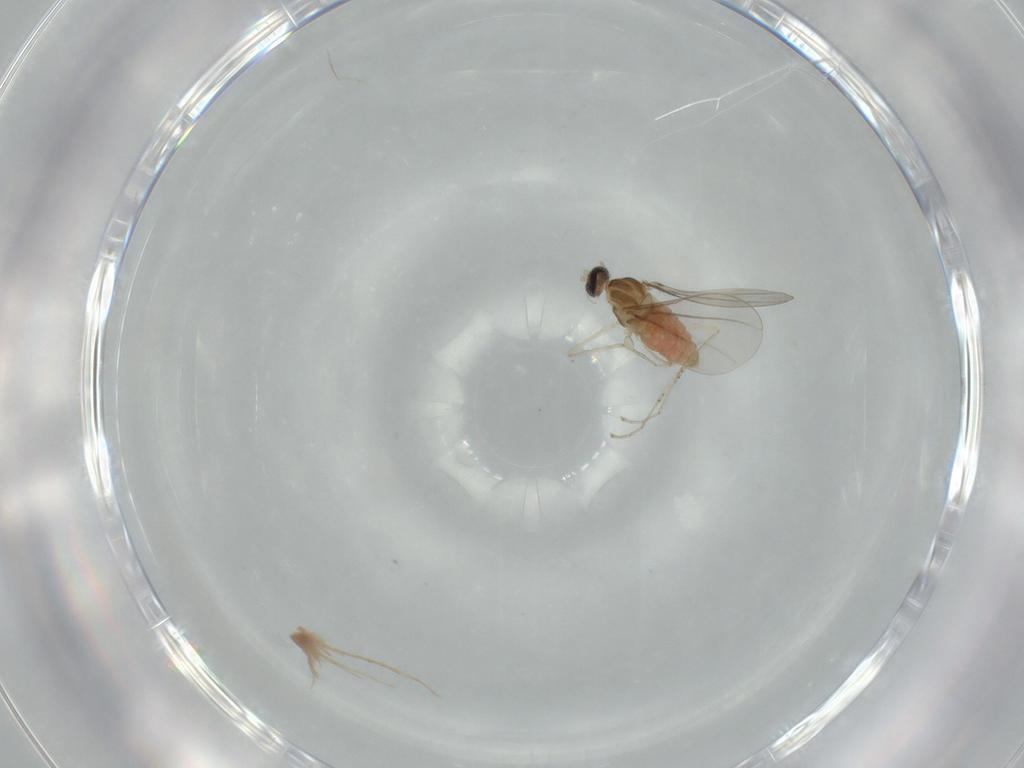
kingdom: Animalia
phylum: Arthropoda
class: Insecta
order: Diptera
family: Cecidomyiidae
